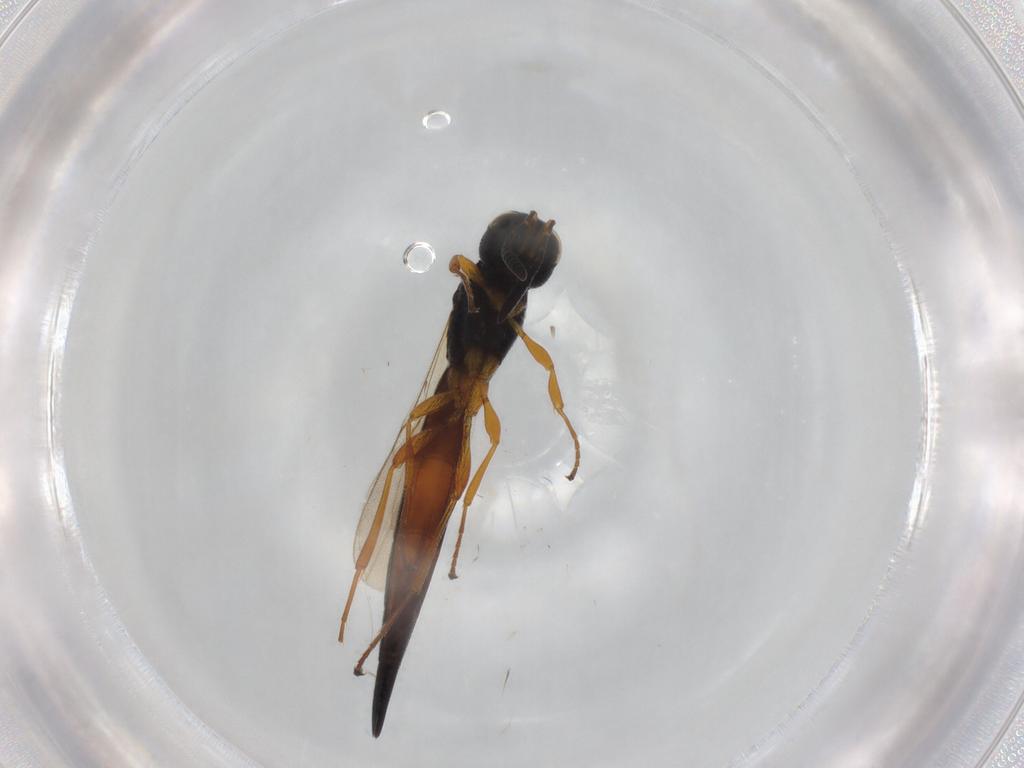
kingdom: Animalia
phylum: Arthropoda
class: Insecta
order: Hymenoptera
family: Scelionidae
